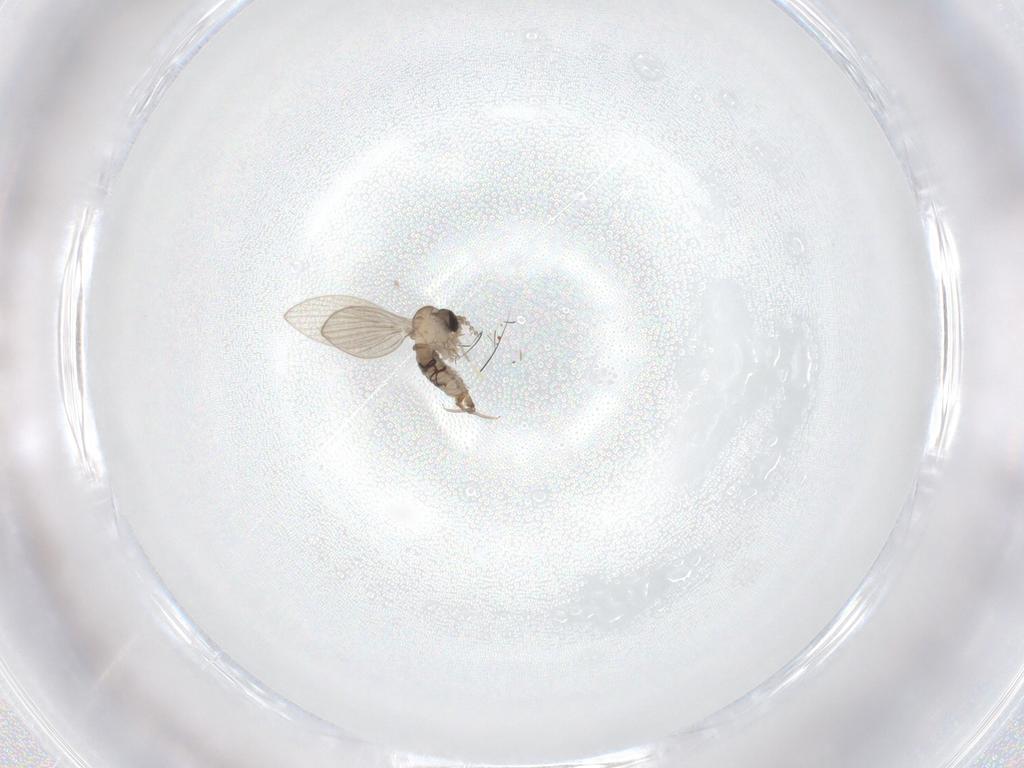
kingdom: Animalia
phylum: Arthropoda
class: Insecta
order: Diptera
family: Psychodidae
